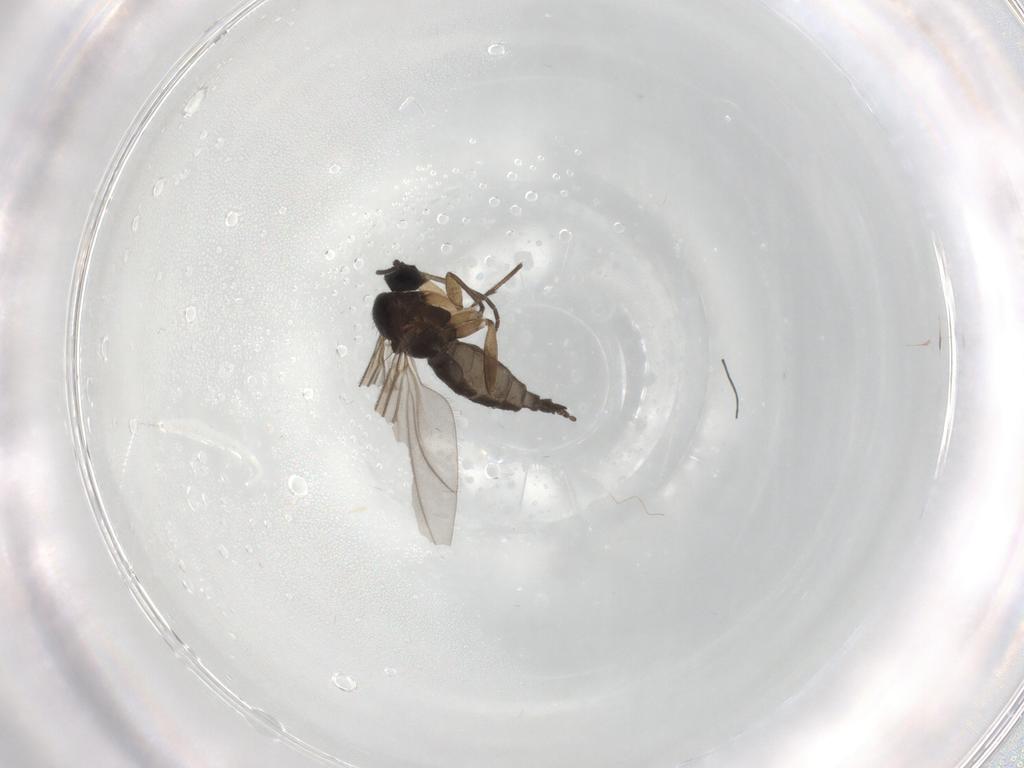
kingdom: Animalia
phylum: Arthropoda
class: Insecta
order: Diptera
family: Sciaridae
